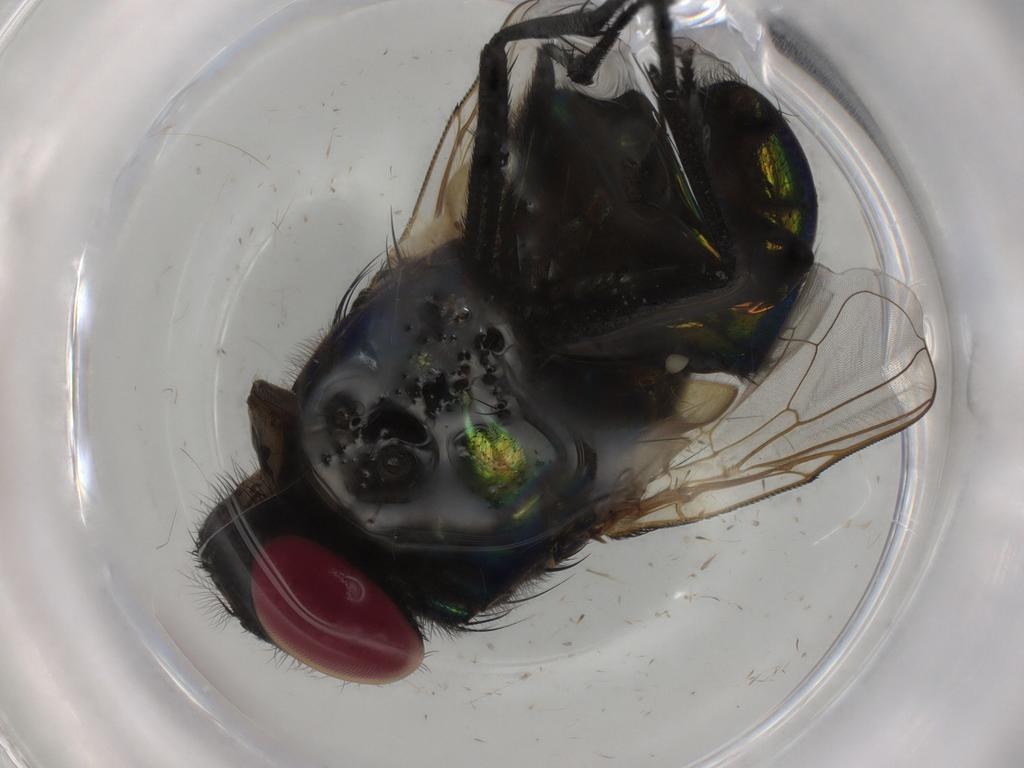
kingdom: Animalia
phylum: Arthropoda
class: Insecta
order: Diptera
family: Muscidae
